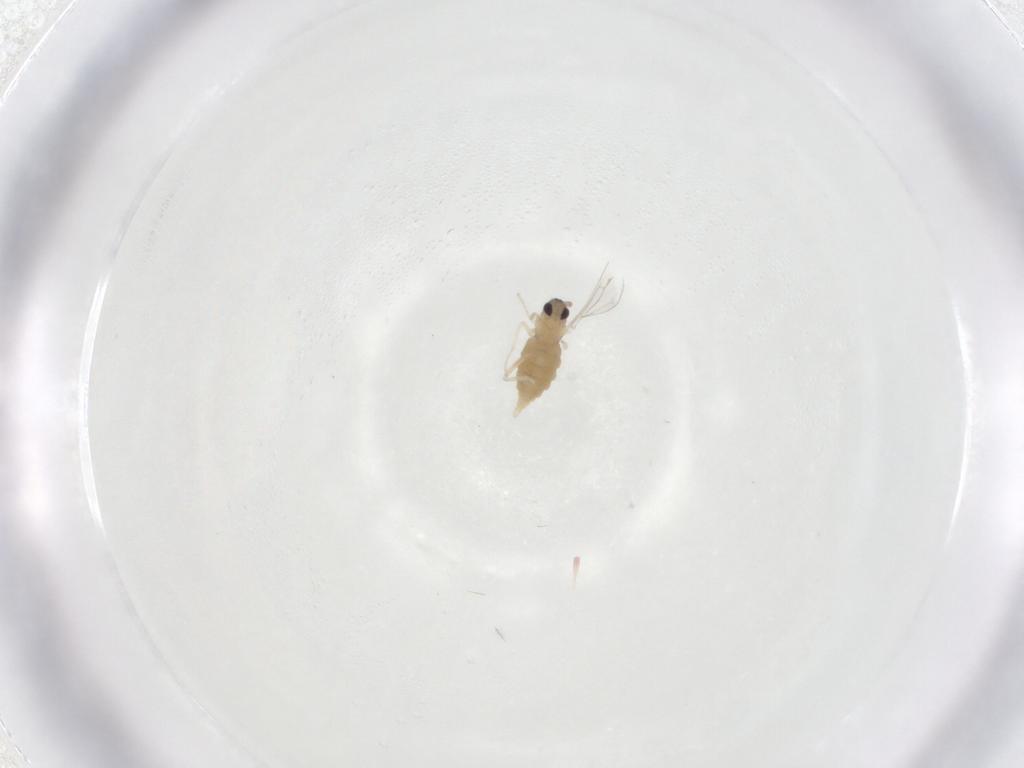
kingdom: Animalia
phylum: Arthropoda
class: Insecta
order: Diptera
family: Cecidomyiidae
